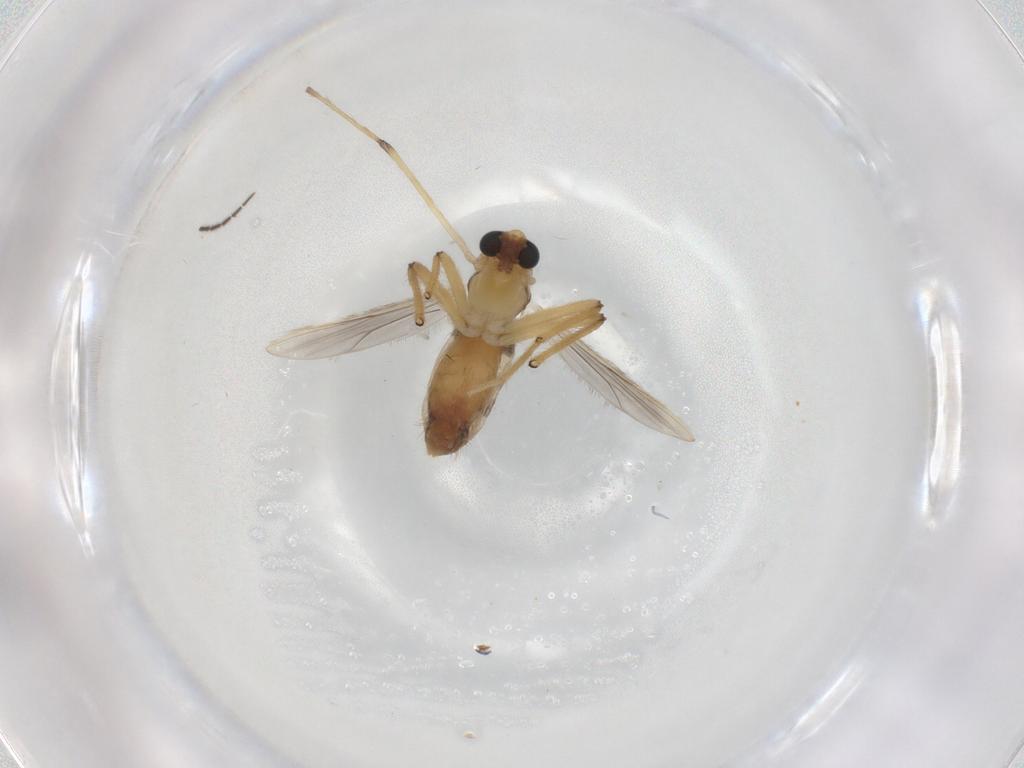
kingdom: Animalia
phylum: Arthropoda
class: Insecta
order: Diptera
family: Chironomidae
